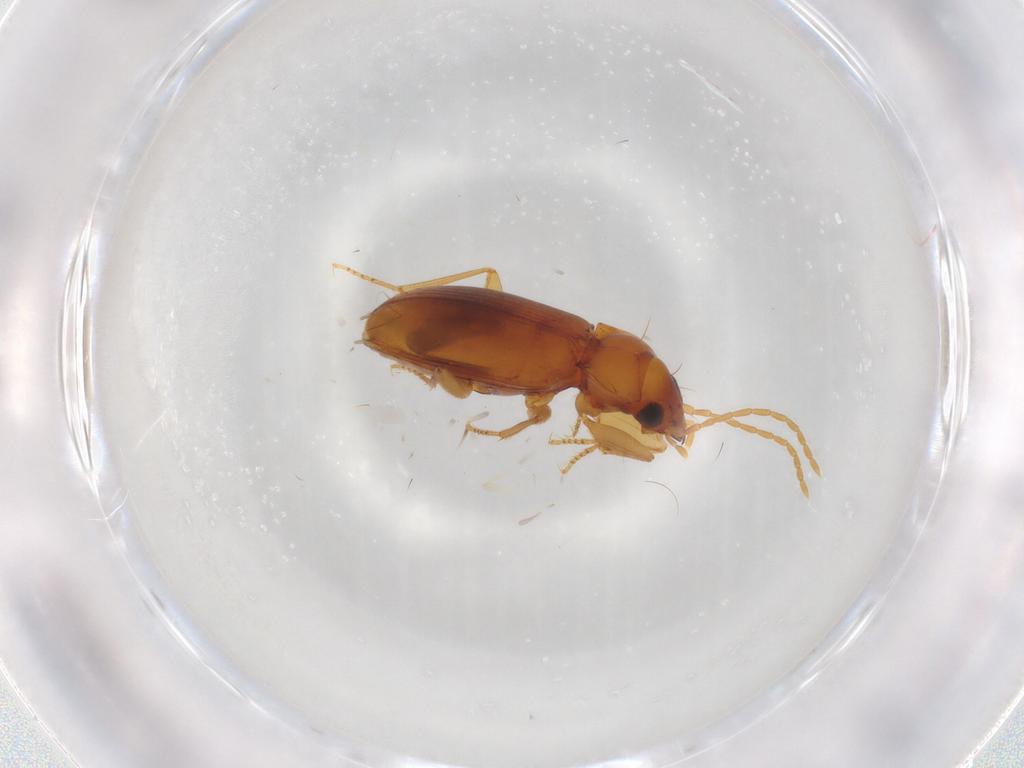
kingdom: Animalia
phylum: Arthropoda
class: Insecta
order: Coleoptera
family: Carabidae
